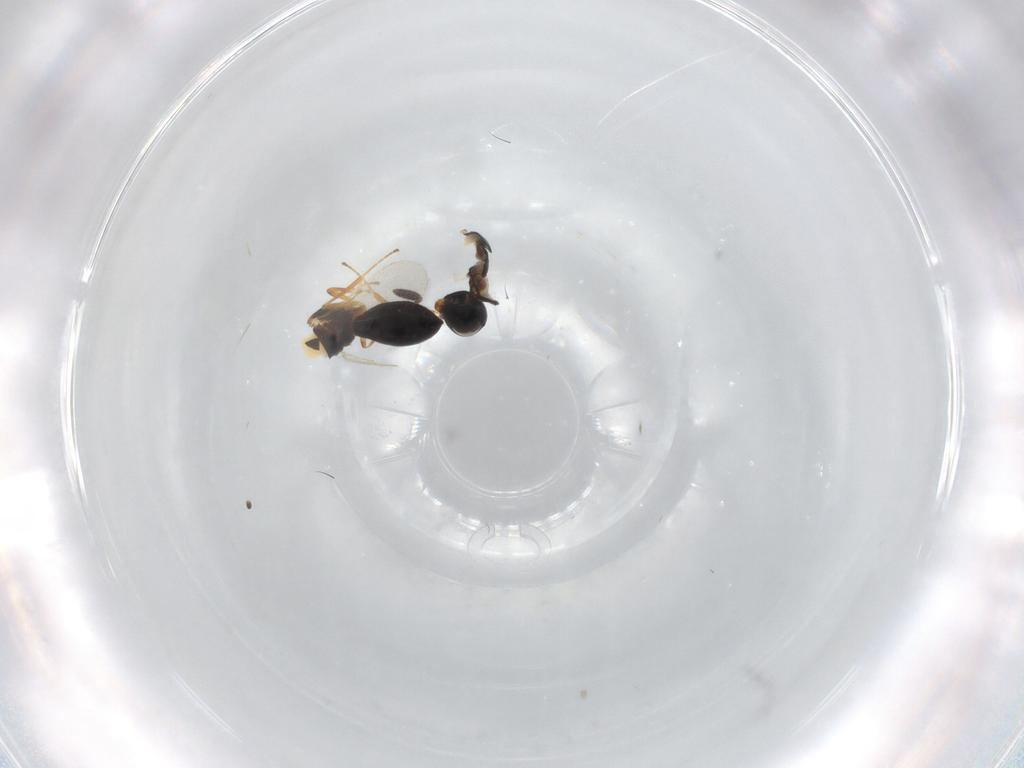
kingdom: Animalia
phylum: Arthropoda
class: Insecta
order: Hymenoptera
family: Scelionidae
